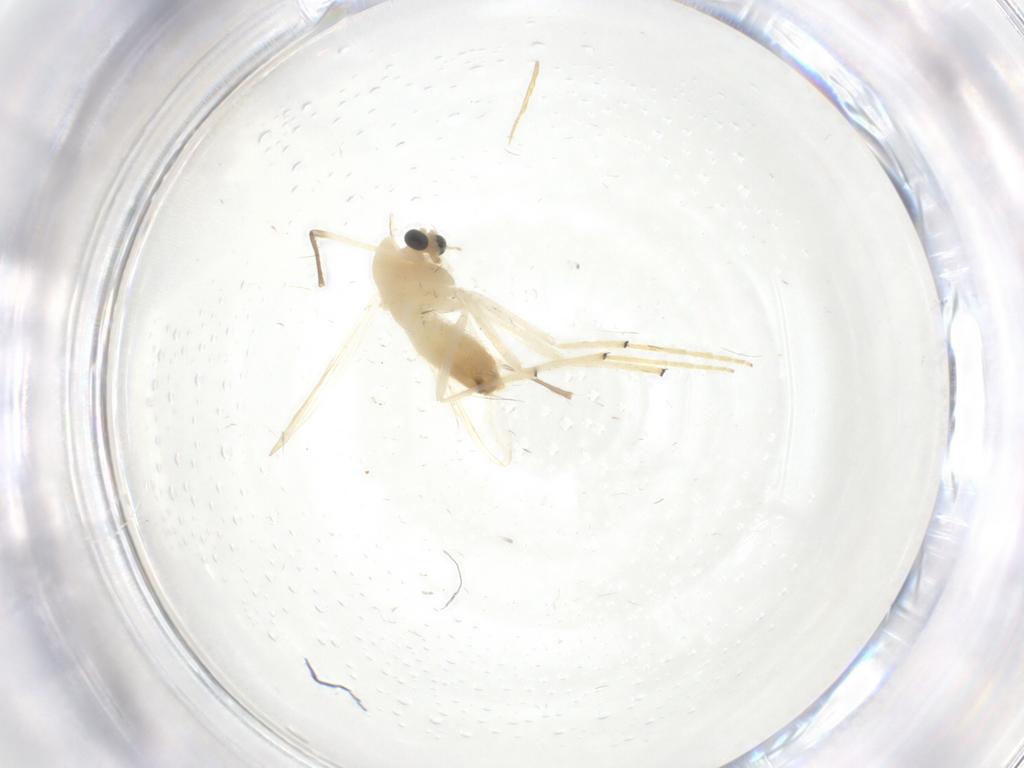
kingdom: Animalia
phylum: Arthropoda
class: Insecta
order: Diptera
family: Chironomidae
